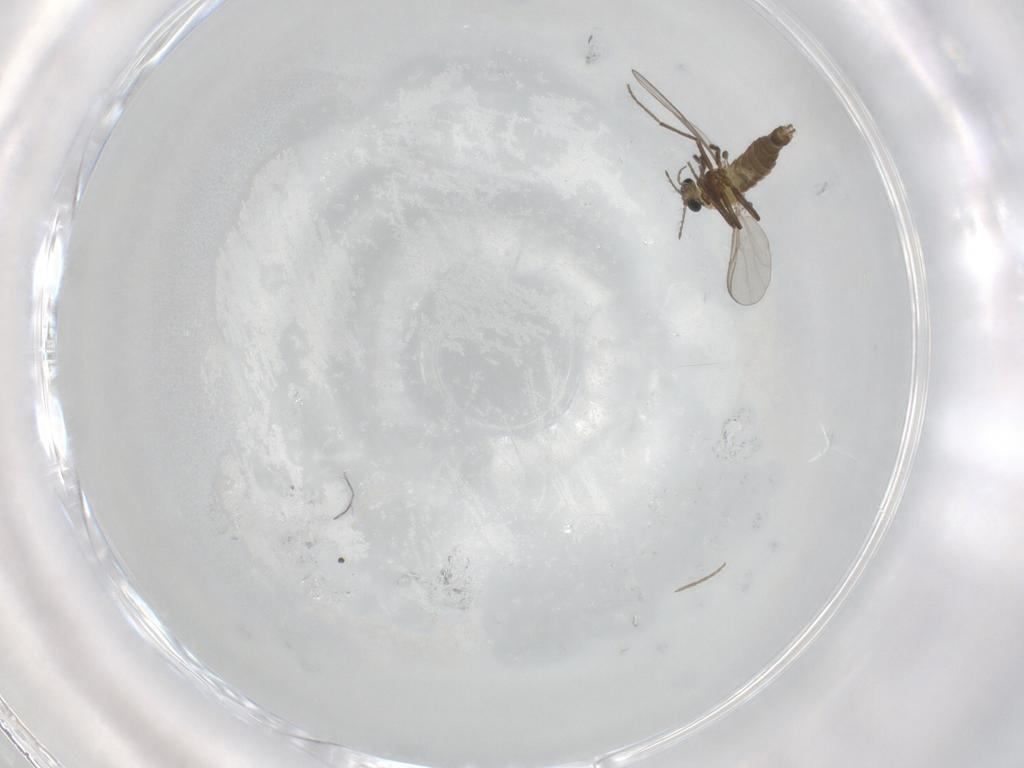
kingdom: Animalia
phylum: Arthropoda
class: Insecta
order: Diptera
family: Chironomidae
